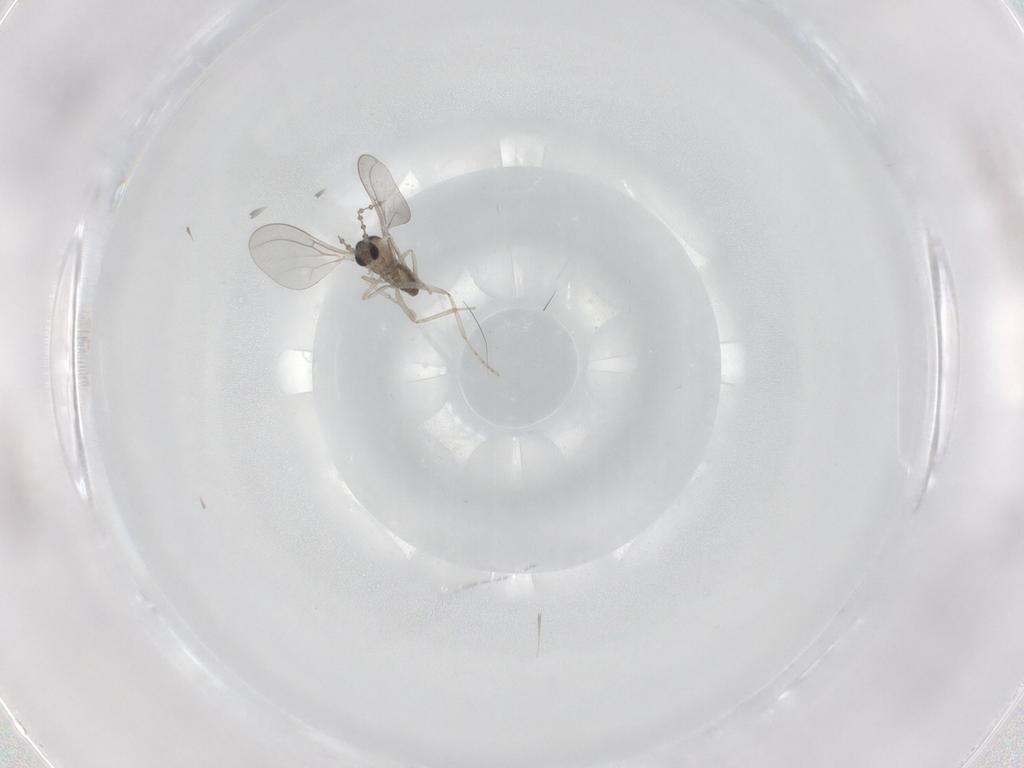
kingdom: Animalia
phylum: Arthropoda
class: Insecta
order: Diptera
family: Cecidomyiidae
